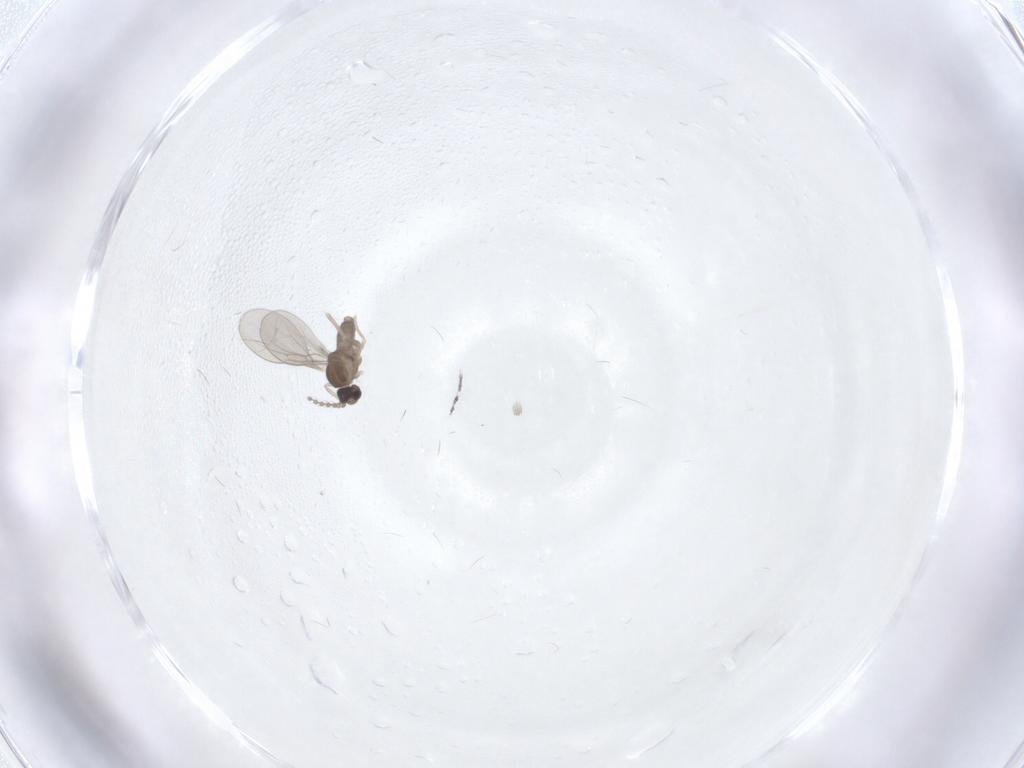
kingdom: Animalia
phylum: Arthropoda
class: Insecta
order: Diptera
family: Cecidomyiidae
